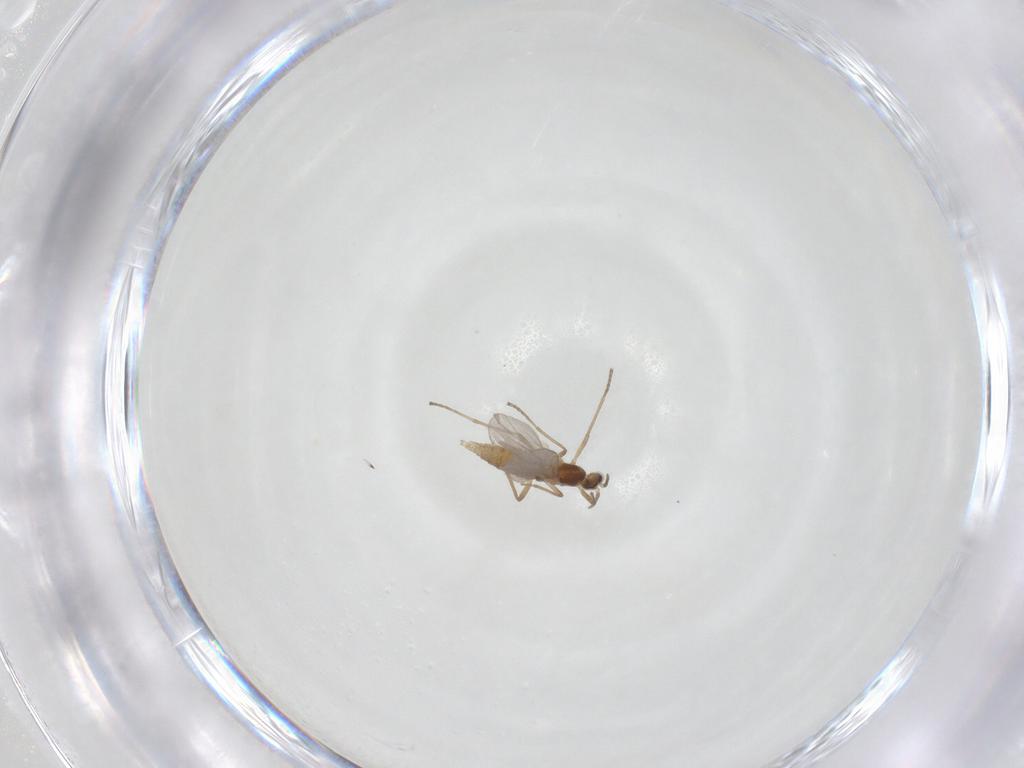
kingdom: Animalia
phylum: Arthropoda
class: Insecta
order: Diptera
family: Cecidomyiidae
